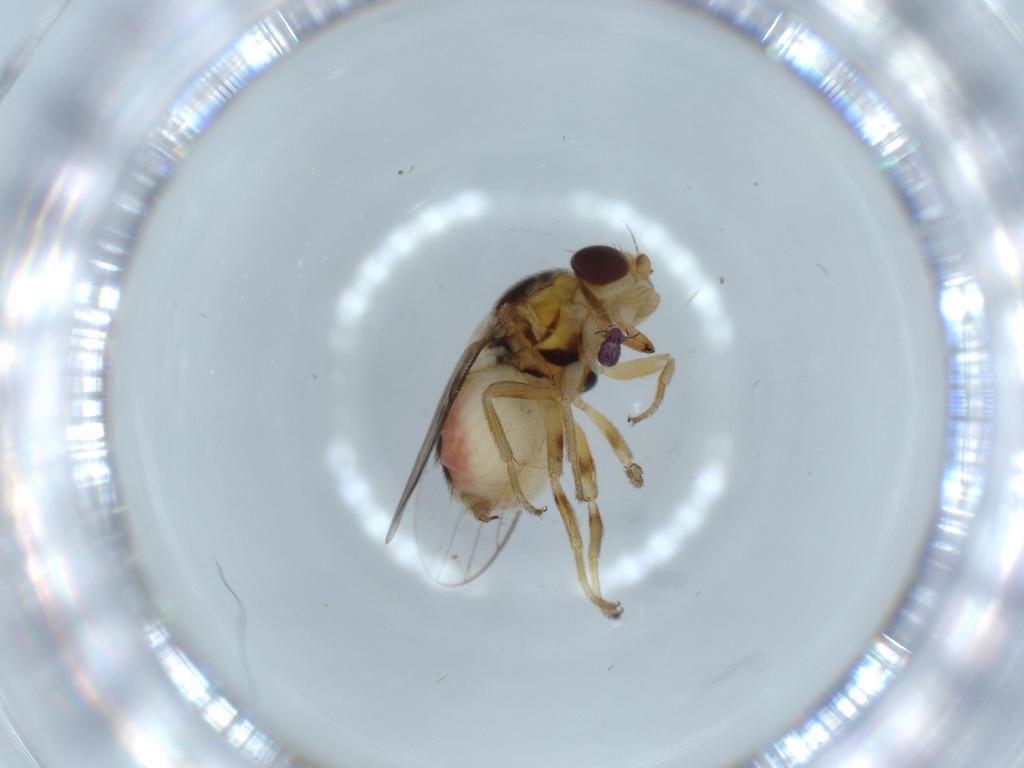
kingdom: Animalia
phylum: Arthropoda
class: Insecta
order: Diptera
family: Chloropidae
